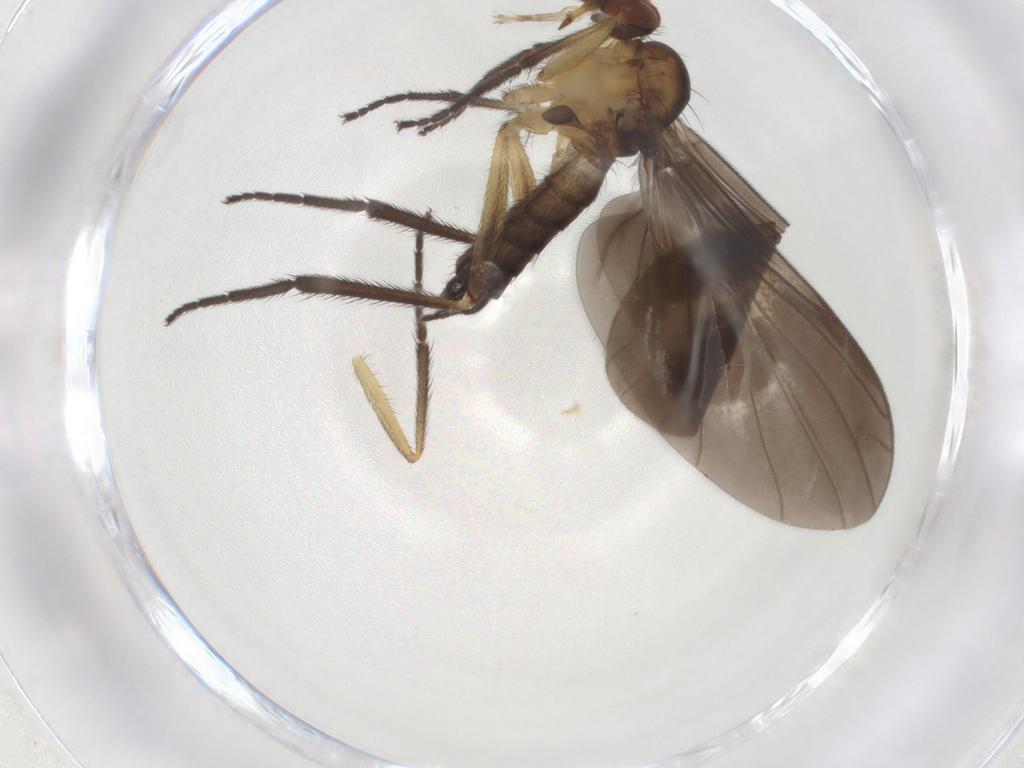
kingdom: Animalia
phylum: Arthropoda
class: Insecta
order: Diptera
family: Empididae
